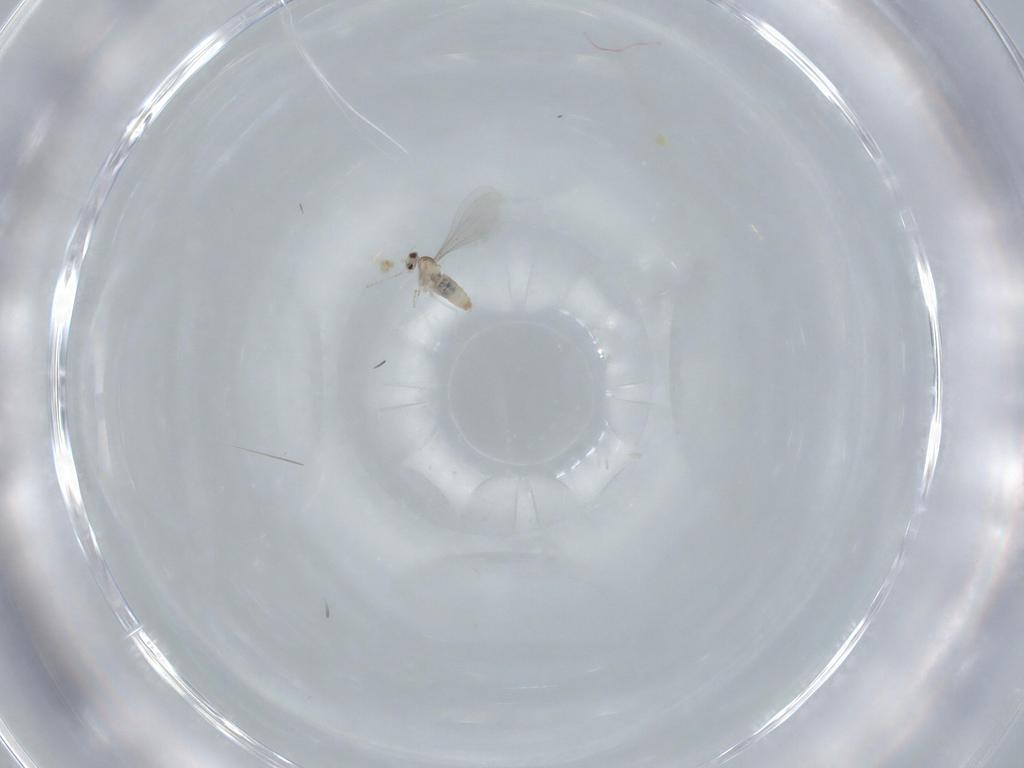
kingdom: Animalia
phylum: Arthropoda
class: Insecta
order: Diptera
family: Cecidomyiidae
